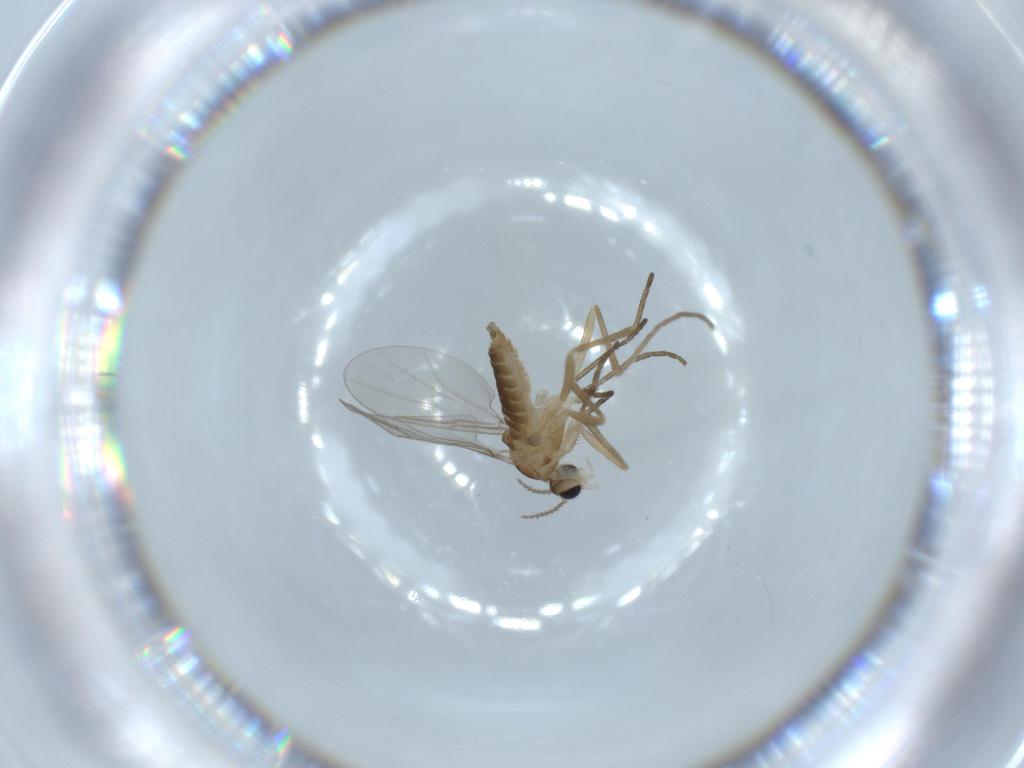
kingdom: Animalia
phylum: Arthropoda
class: Insecta
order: Diptera
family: Cecidomyiidae
